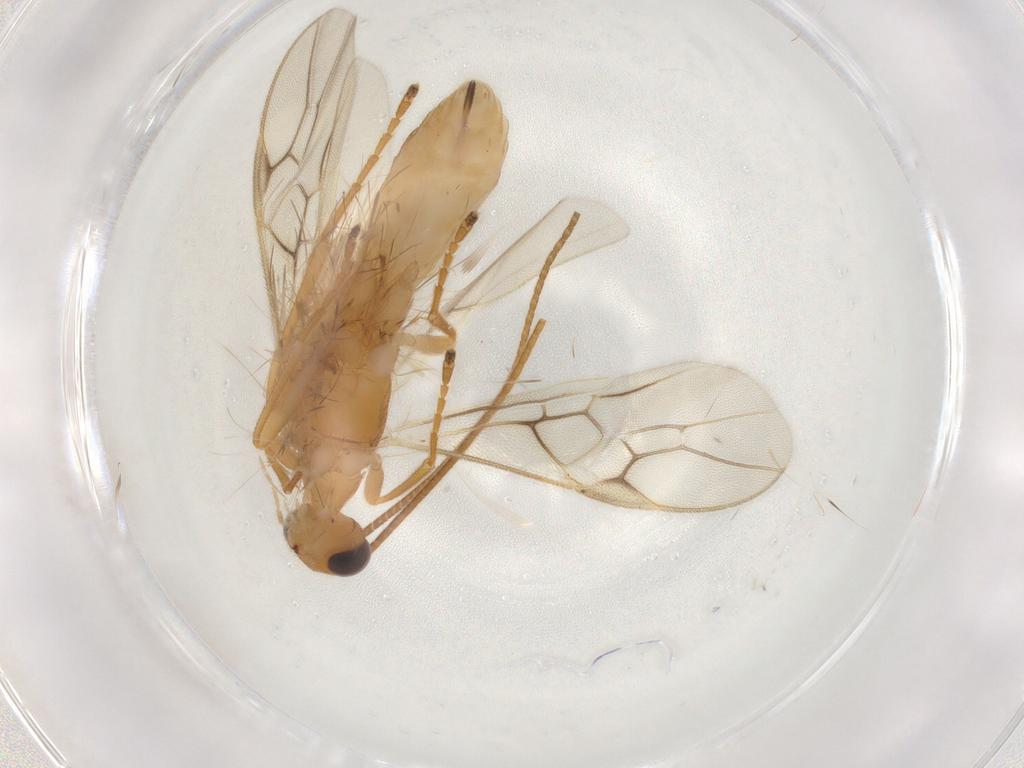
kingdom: Animalia
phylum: Arthropoda
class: Insecta
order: Hymenoptera
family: Braconidae
